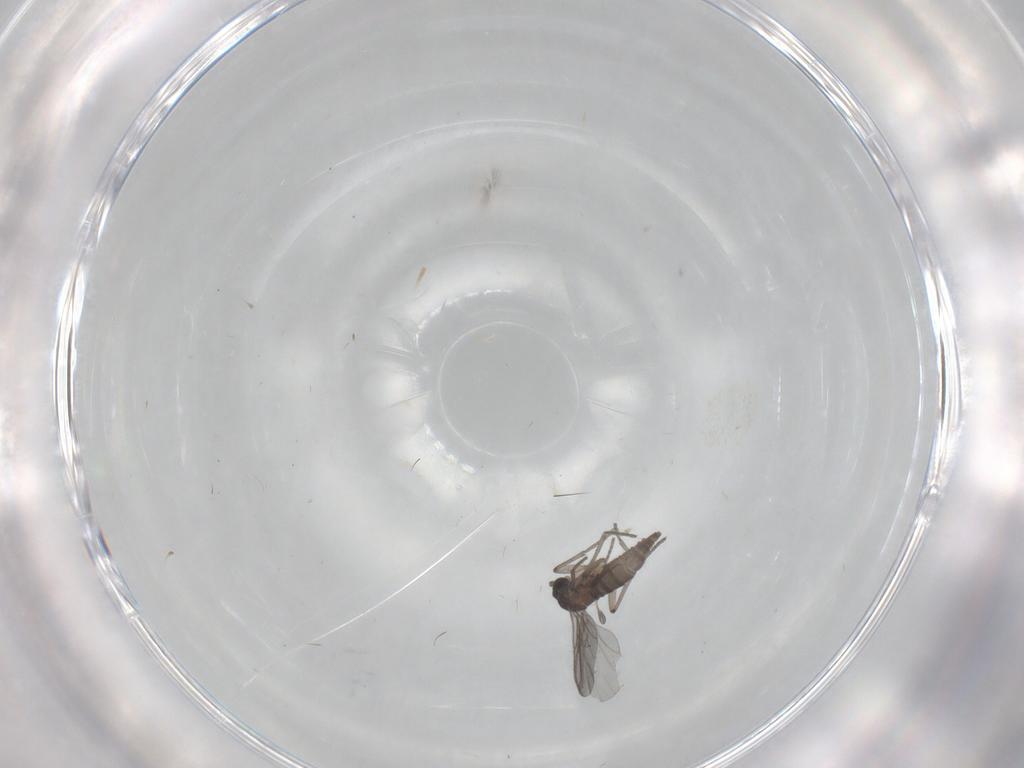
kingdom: Animalia
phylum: Arthropoda
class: Insecta
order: Diptera
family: Sciaridae
